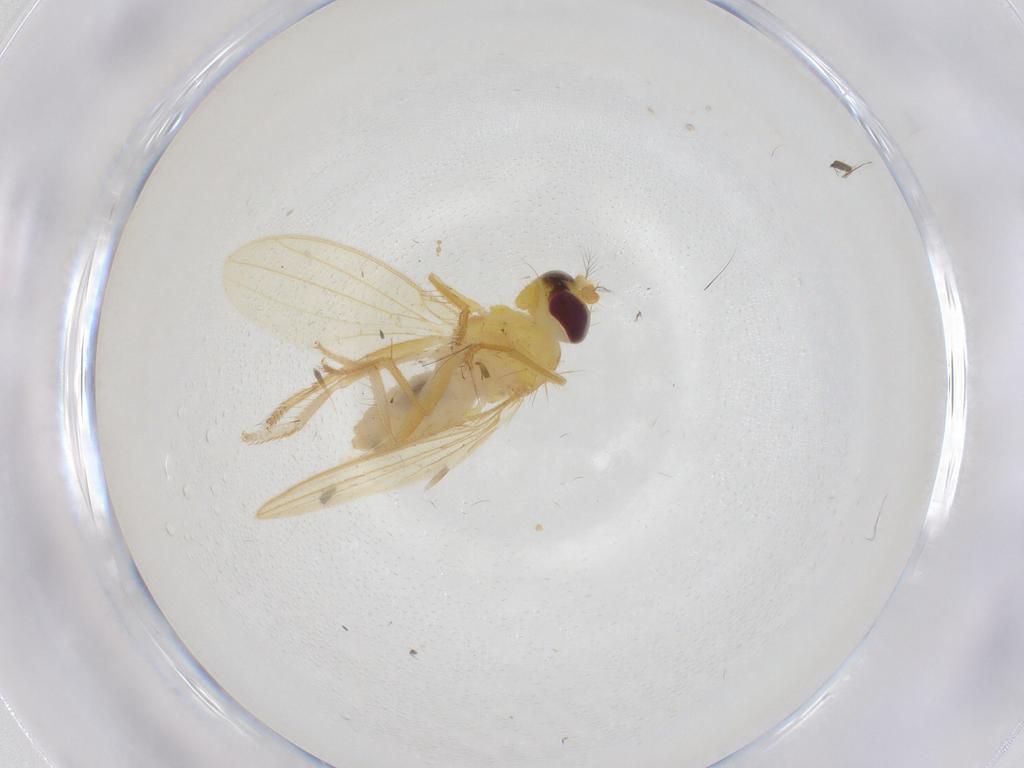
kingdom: Animalia
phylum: Arthropoda
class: Insecta
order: Diptera
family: Periscelididae
